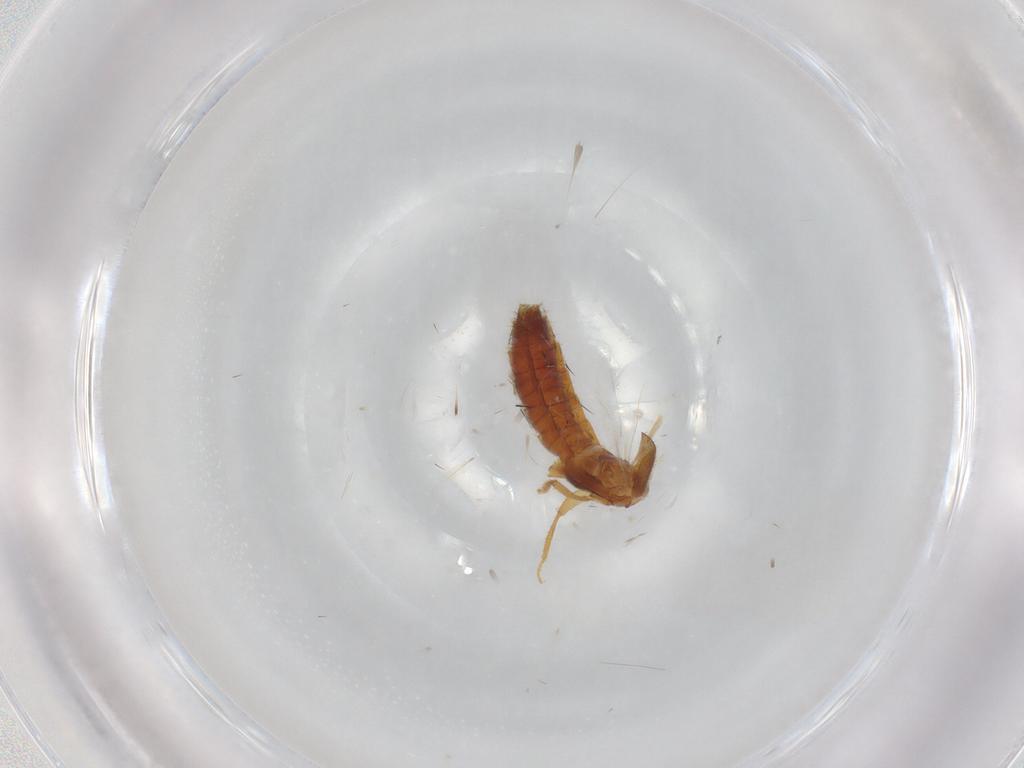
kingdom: Animalia
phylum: Arthropoda
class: Insecta
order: Coleoptera
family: Staphylinidae
